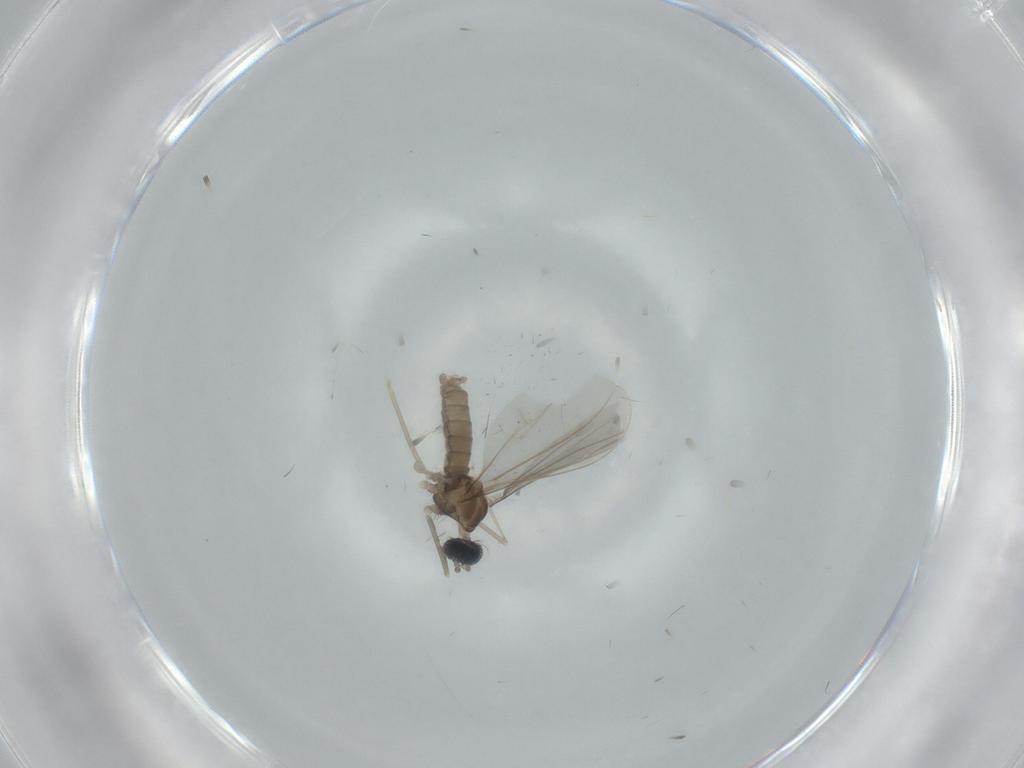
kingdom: Animalia
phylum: Arthropoda
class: Insecta
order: Diptera
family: Cecidomyiidae
